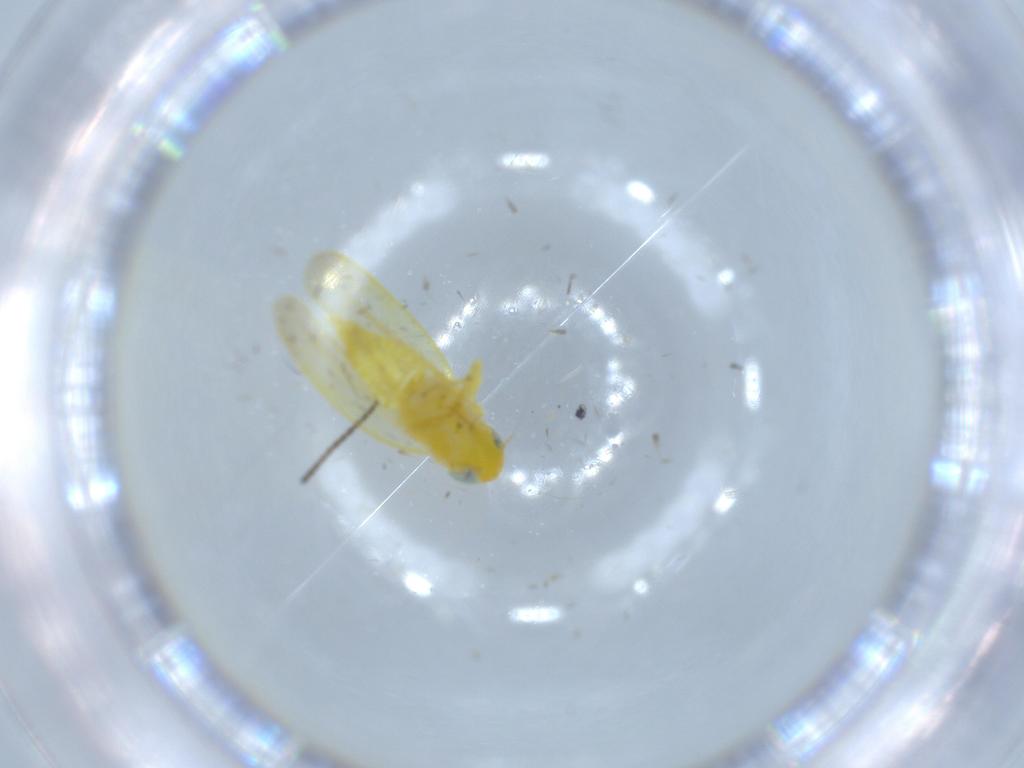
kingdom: Animalia
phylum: Arthropoda
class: Insecta
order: Hemiptera
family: Cicadellidae
